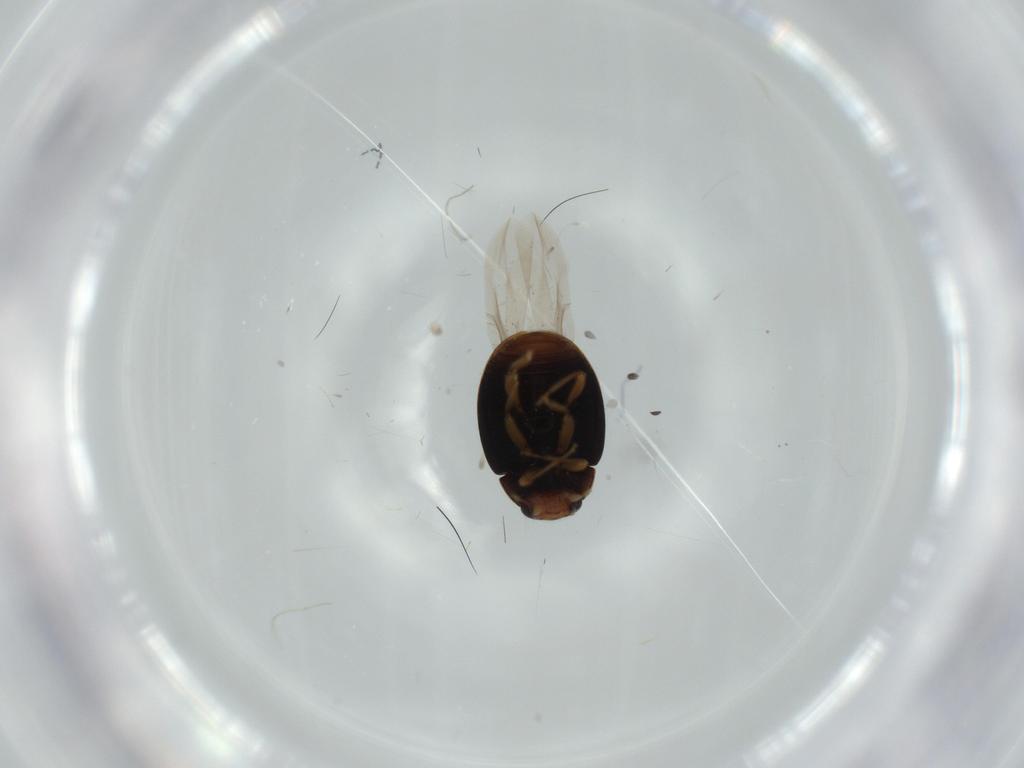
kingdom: Animalia
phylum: Arthropoda
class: Insecta
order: Coleoptera
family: Coccinellidae
